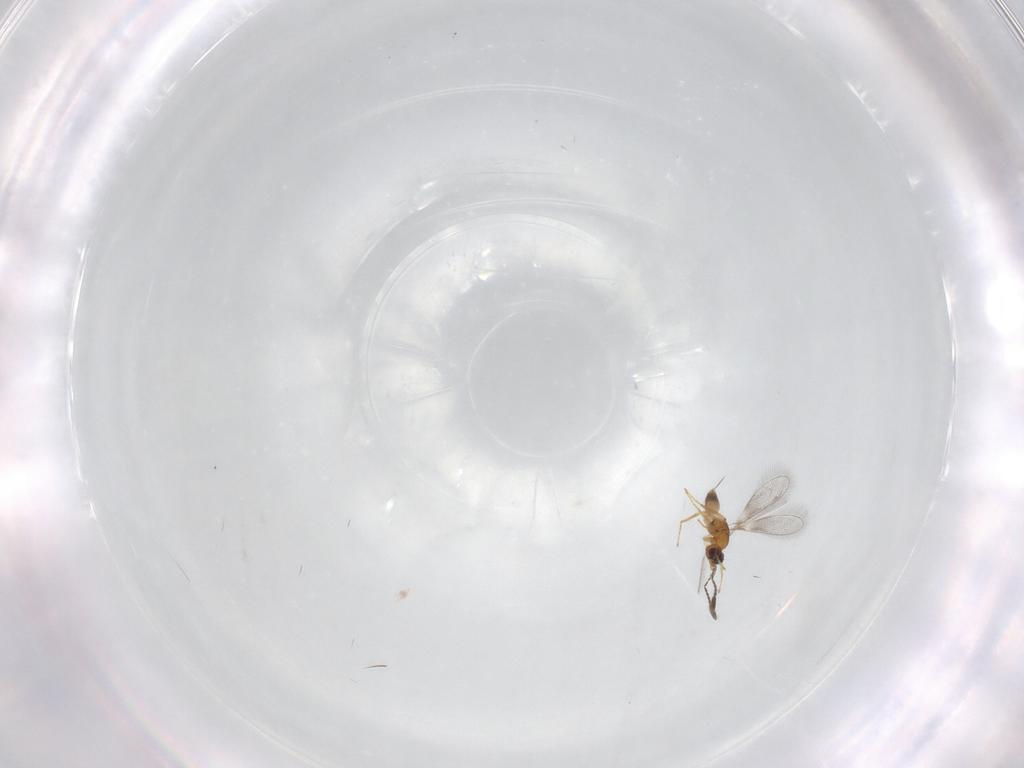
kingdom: Animalia
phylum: Arthropoda
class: Insecta
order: Hymenoptera
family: Mymaridae
